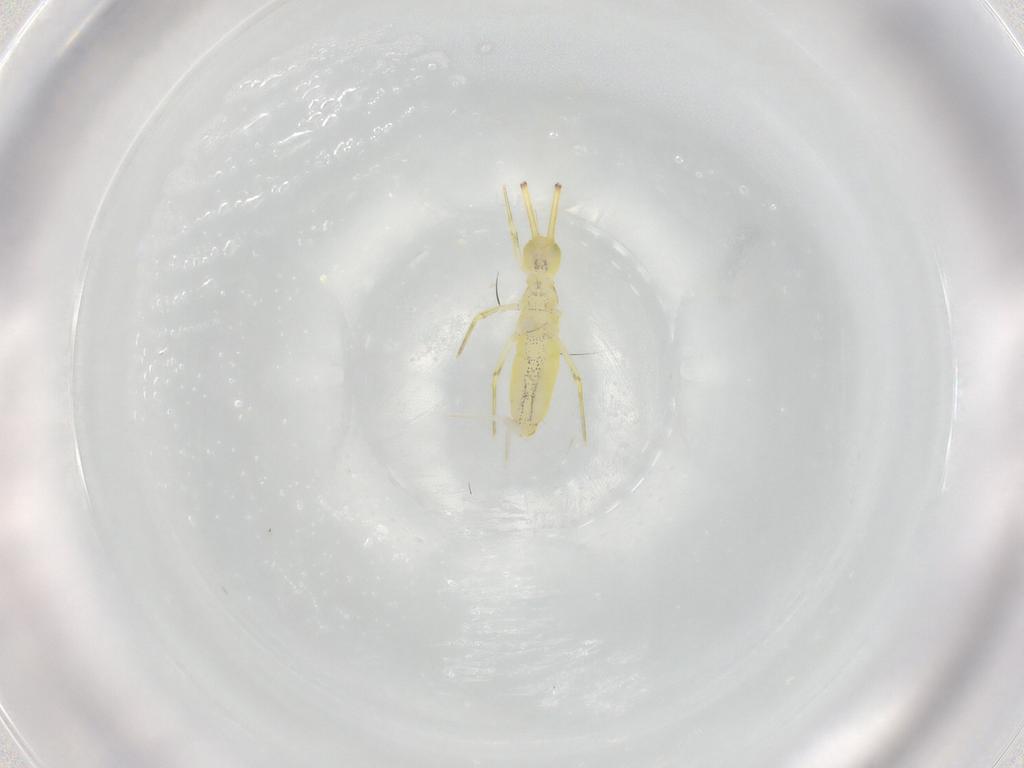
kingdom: Animalia
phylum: Arthropoda
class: Collembola
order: Entomobryomorpha
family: Entomobryidae
